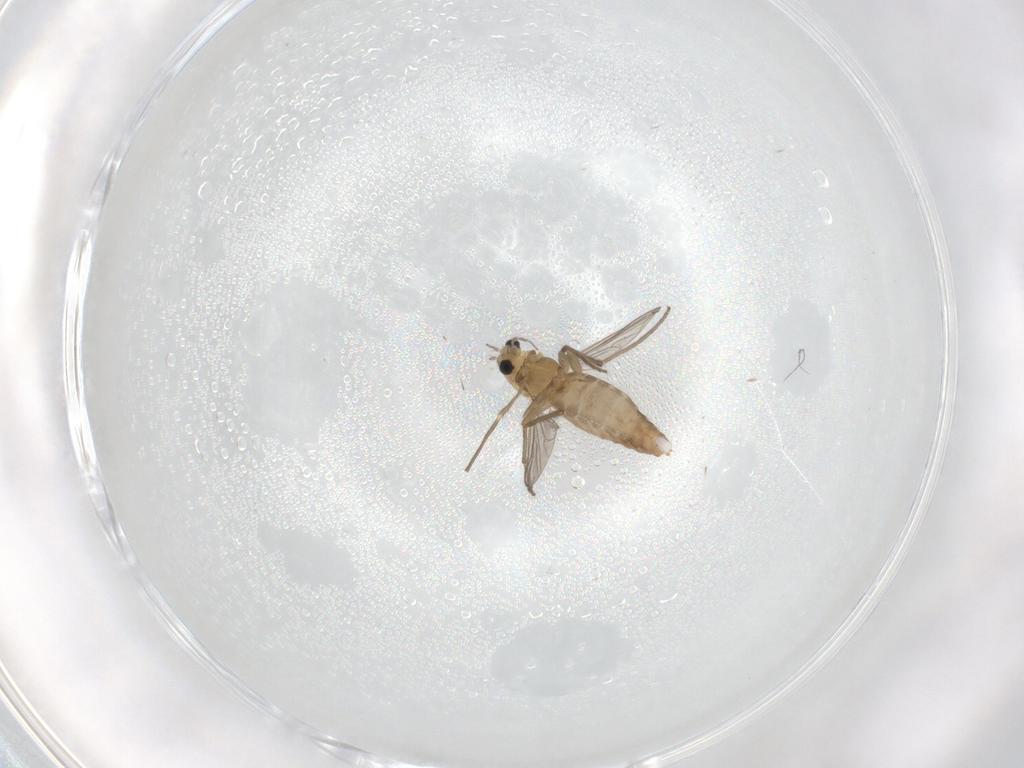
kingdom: Animalia
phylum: Arthropoda
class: Insecta
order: Diptera
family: Chironomidae
